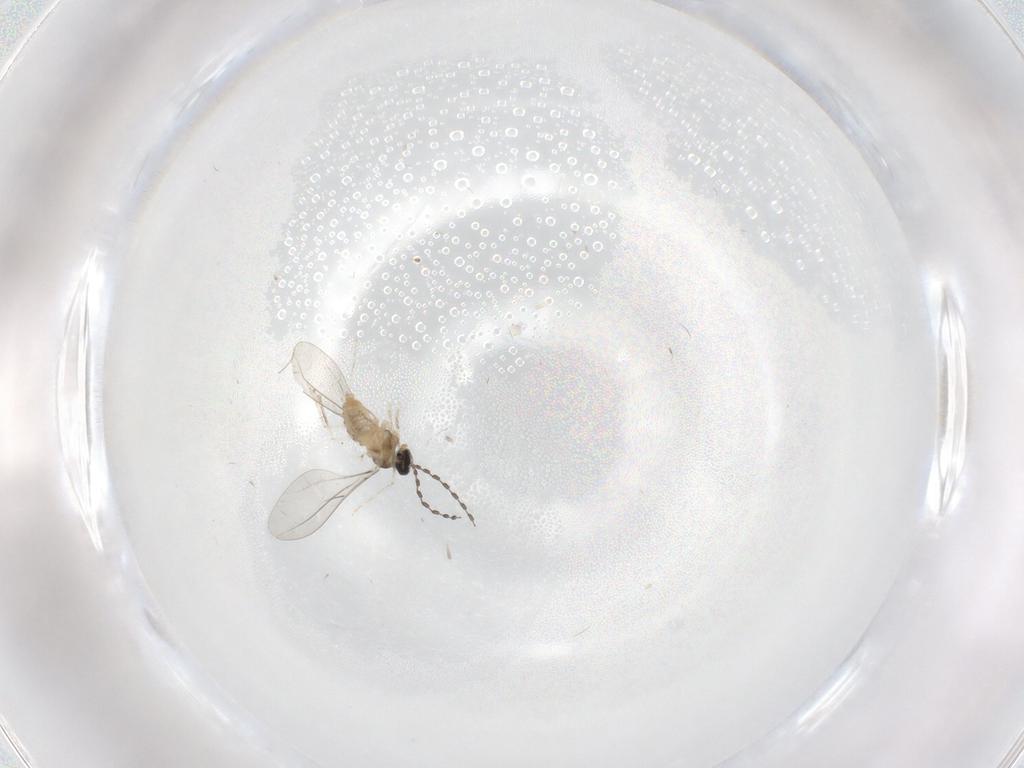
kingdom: Animalia
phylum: Arthropoda
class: Insecta
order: Diptera
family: Cecidomyiidae
